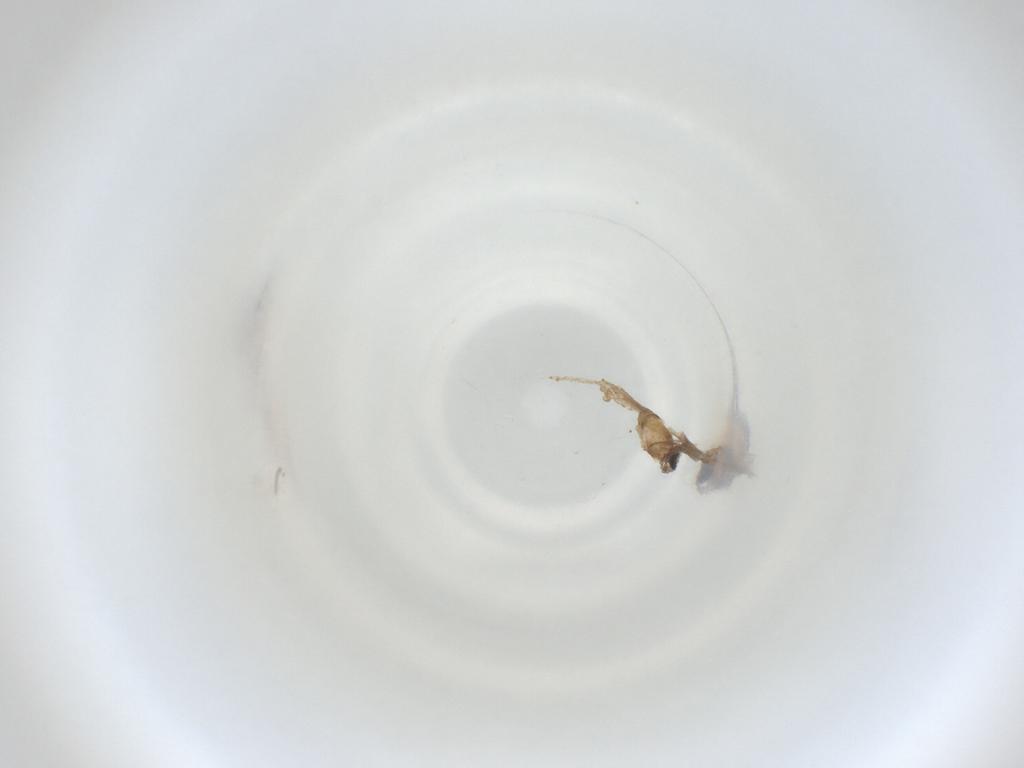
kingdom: Animalia
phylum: Arthropoda
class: Insecta
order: Diptera
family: Cecidomyiidae
